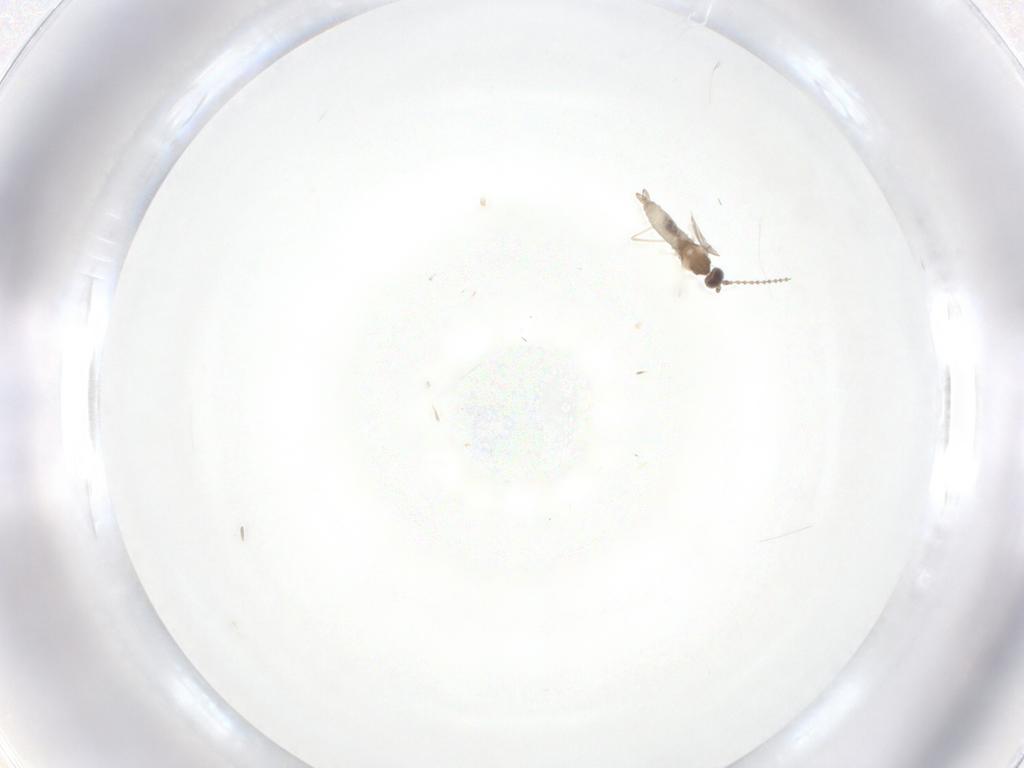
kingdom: Animalia
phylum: Arthropoda
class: Insecta
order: Diptera
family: Cecidomyiidae
